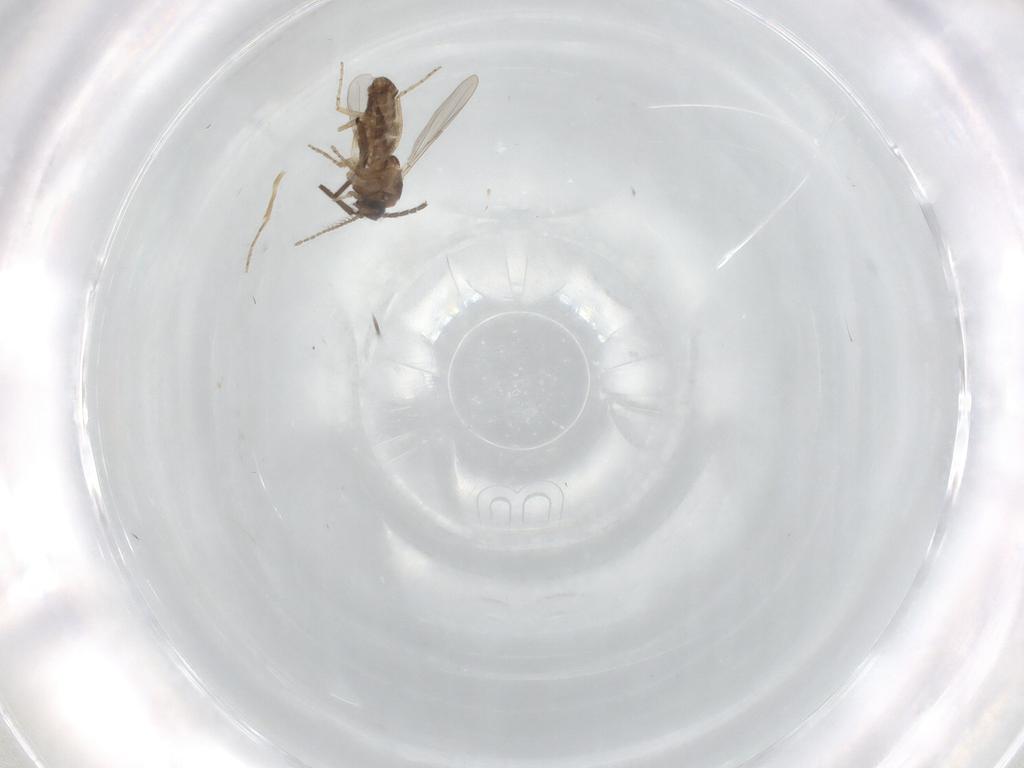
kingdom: Animalia
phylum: Arthropoda
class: Insecta
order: Diptera
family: Ceratopogonidae
